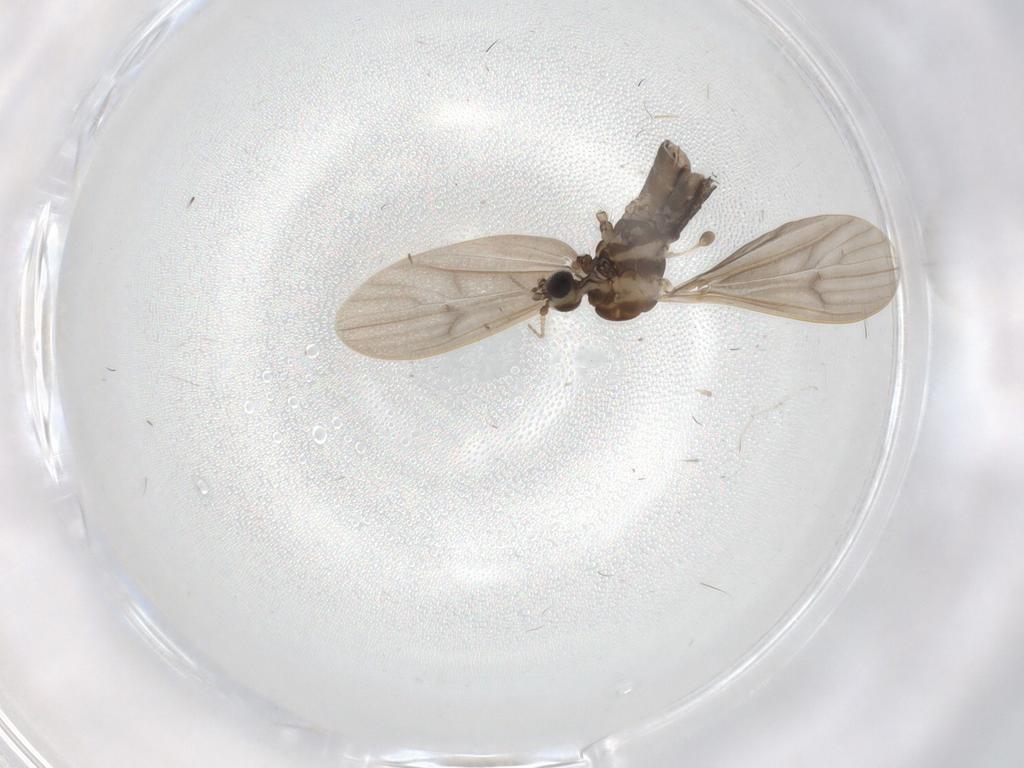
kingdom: Animalia
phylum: Arthropoda
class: Insecta
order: Diptera
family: Cecidomyiidae
